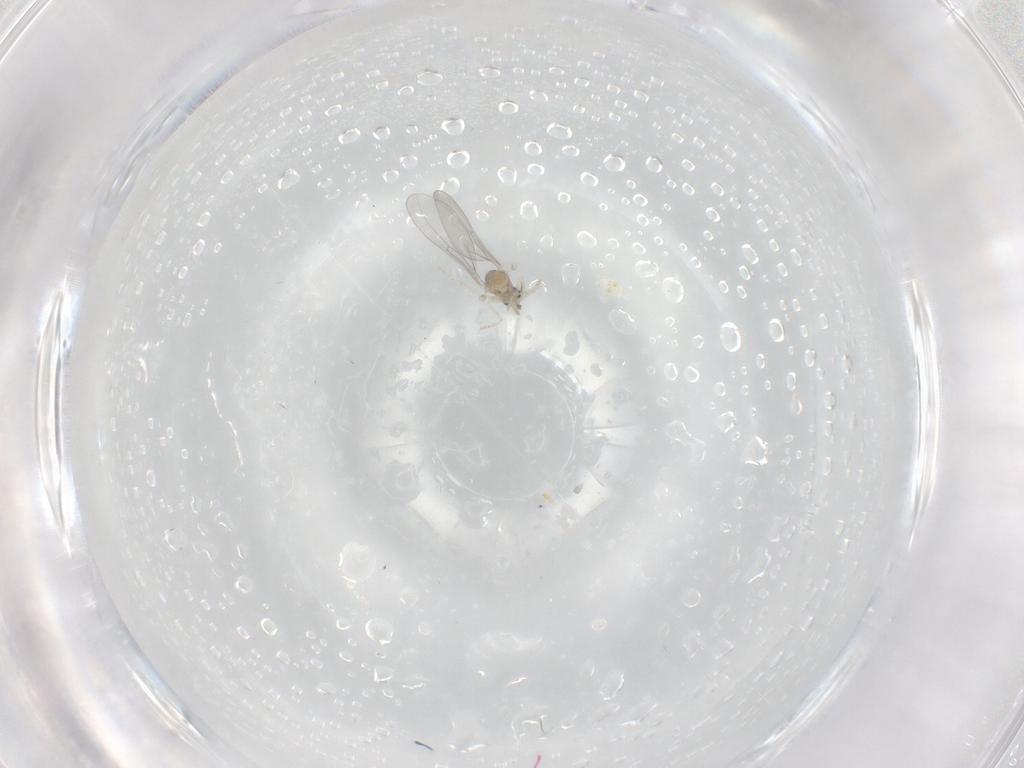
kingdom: Animalia
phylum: Arthropoda
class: Insecta
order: Diptera
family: Cecidomyiidae
